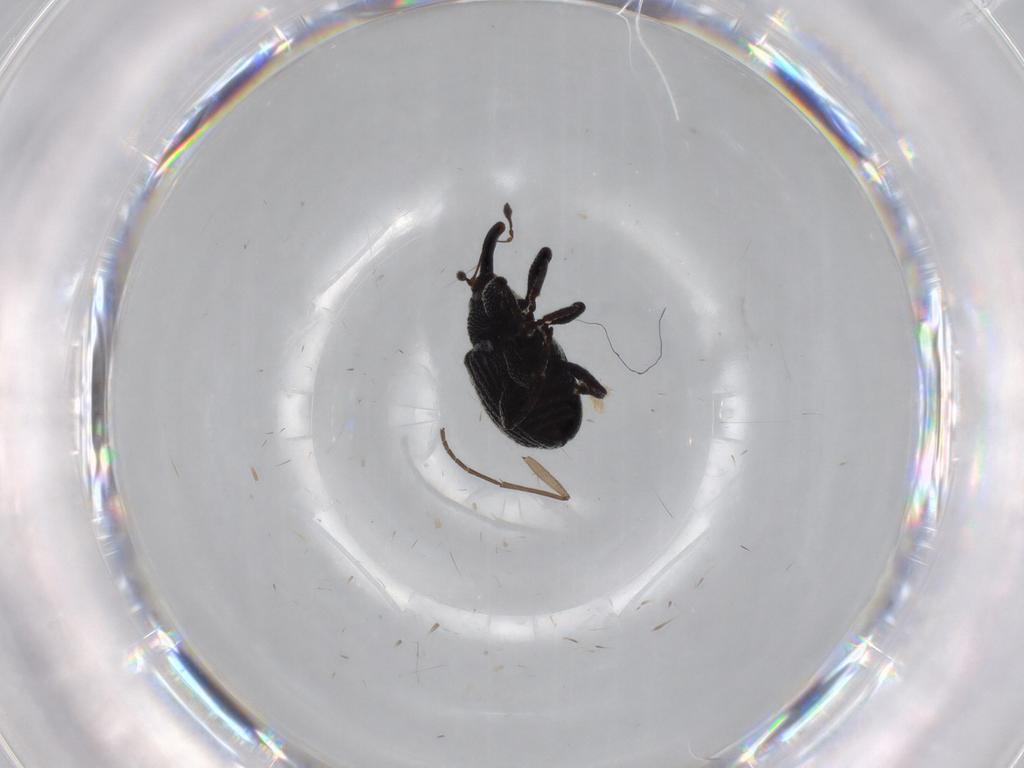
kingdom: Animalia
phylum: Arthropoda
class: Insecta
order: Coleoptera
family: Curculionidae
